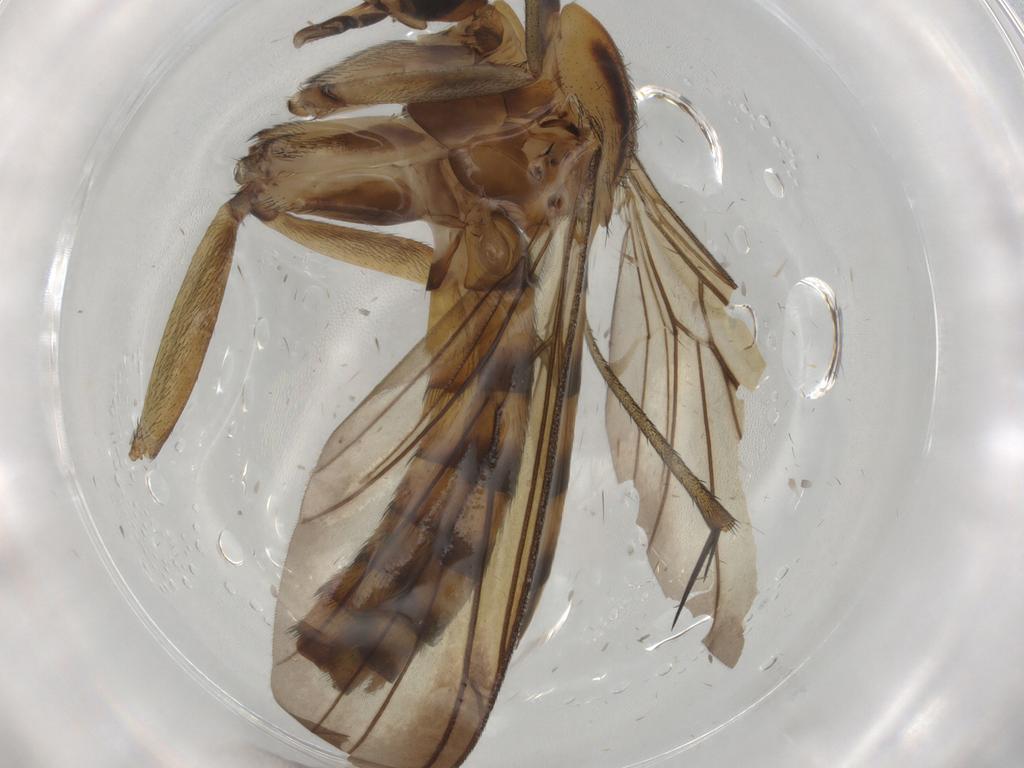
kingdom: Animalia
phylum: Arthropoda
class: Insecta
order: Diptera
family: Keroplatidae
